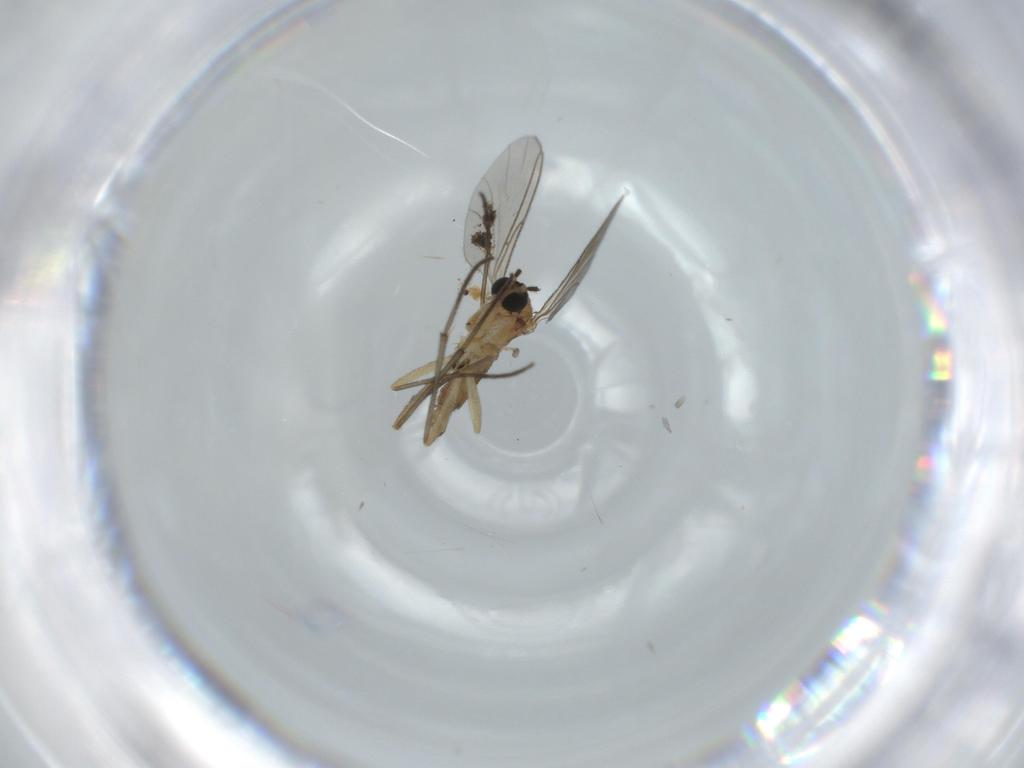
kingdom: Animalia
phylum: Arthropoda
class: Insecta
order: Diptera
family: Sciaridae
